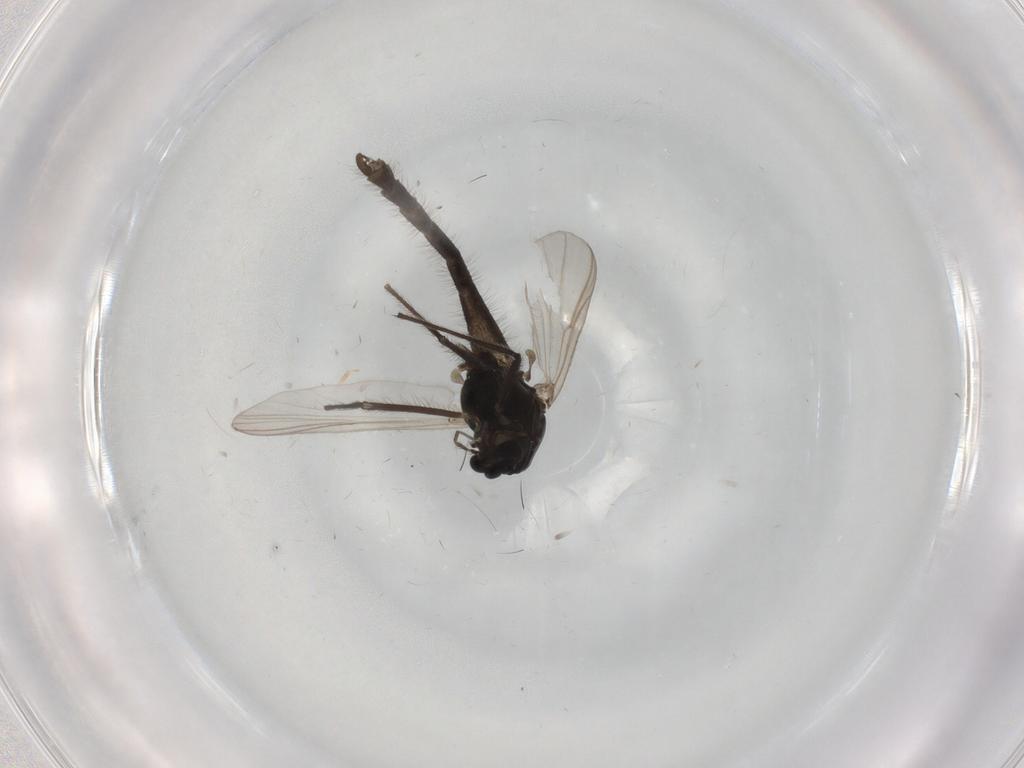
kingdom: Animalia
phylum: Arthropoda
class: Insecta
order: Diptera
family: Chironomidae
